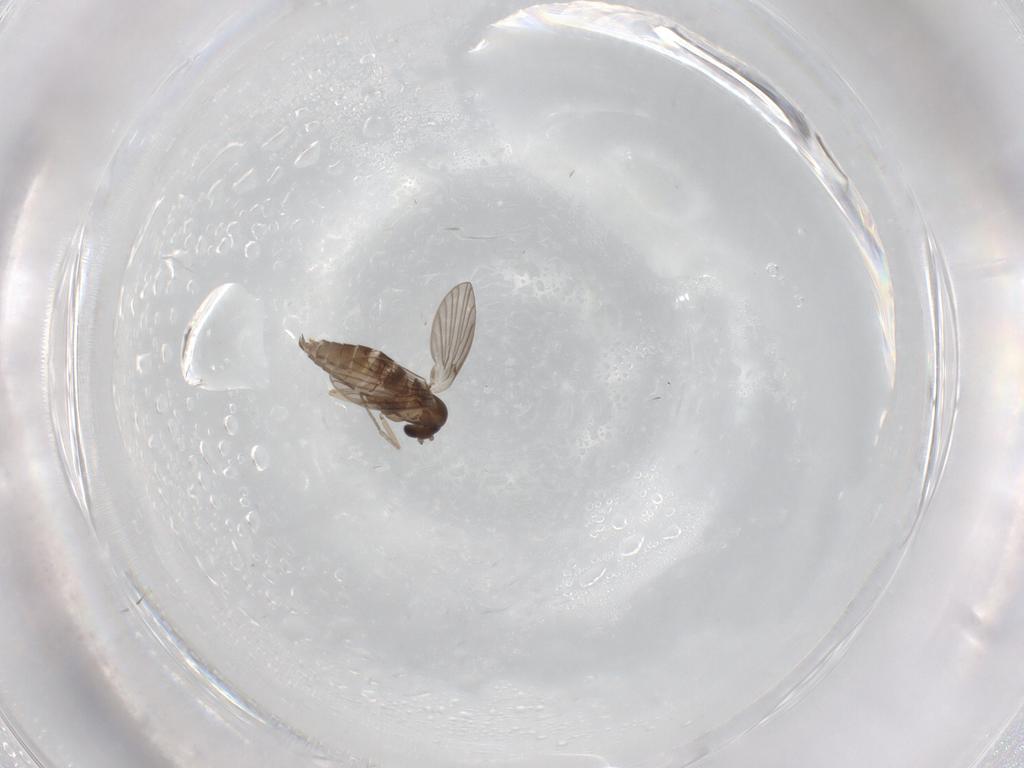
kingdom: Animalia
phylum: Arthropoda
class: Insecta
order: Diptera
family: Psychodidae
